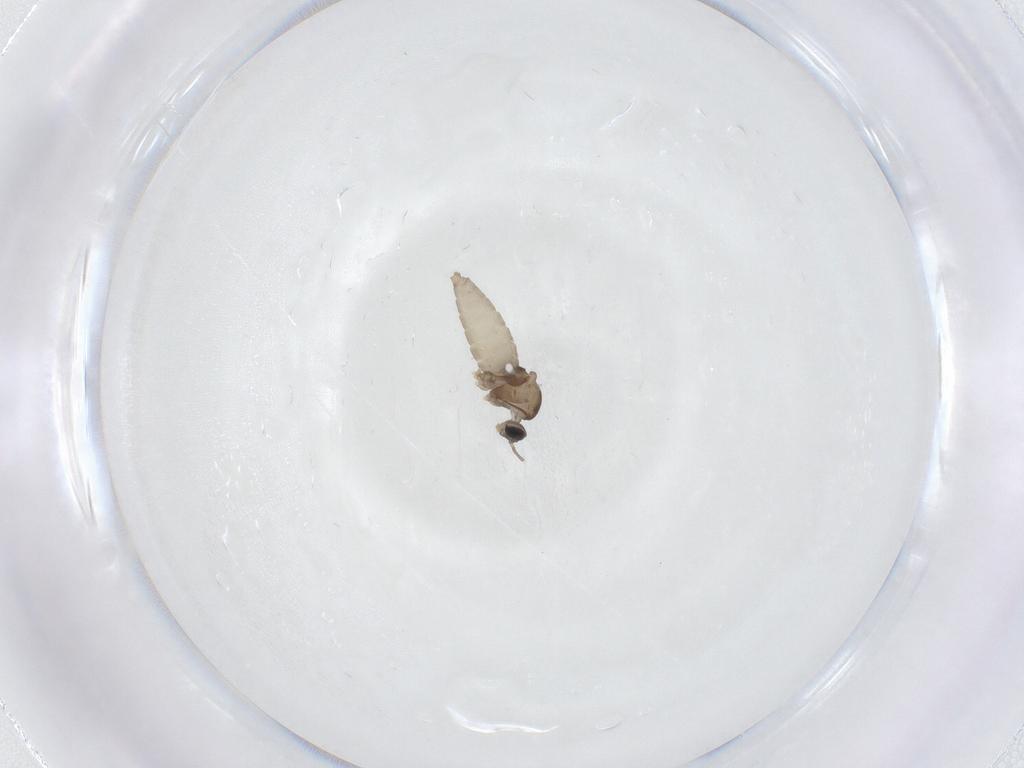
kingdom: Animalia
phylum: Arthropoda
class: Insecta
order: Diptera
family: Cecidomyiidae
